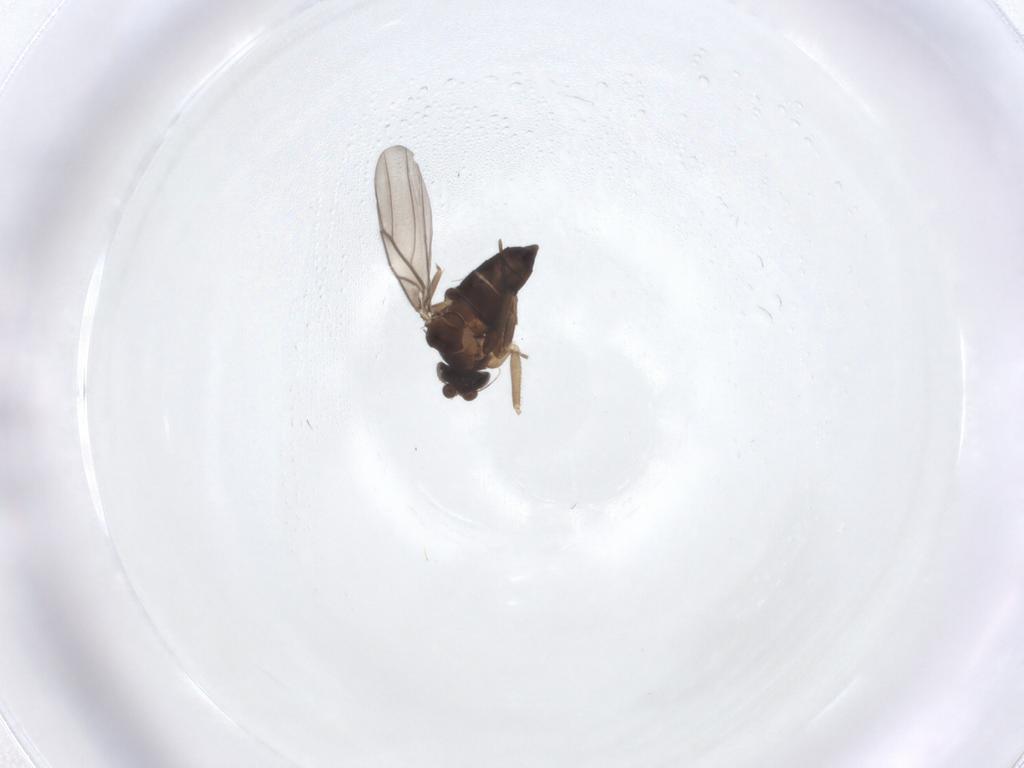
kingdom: Animalia
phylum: Arthropoda
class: Insecta
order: Diptera
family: Phoridae
